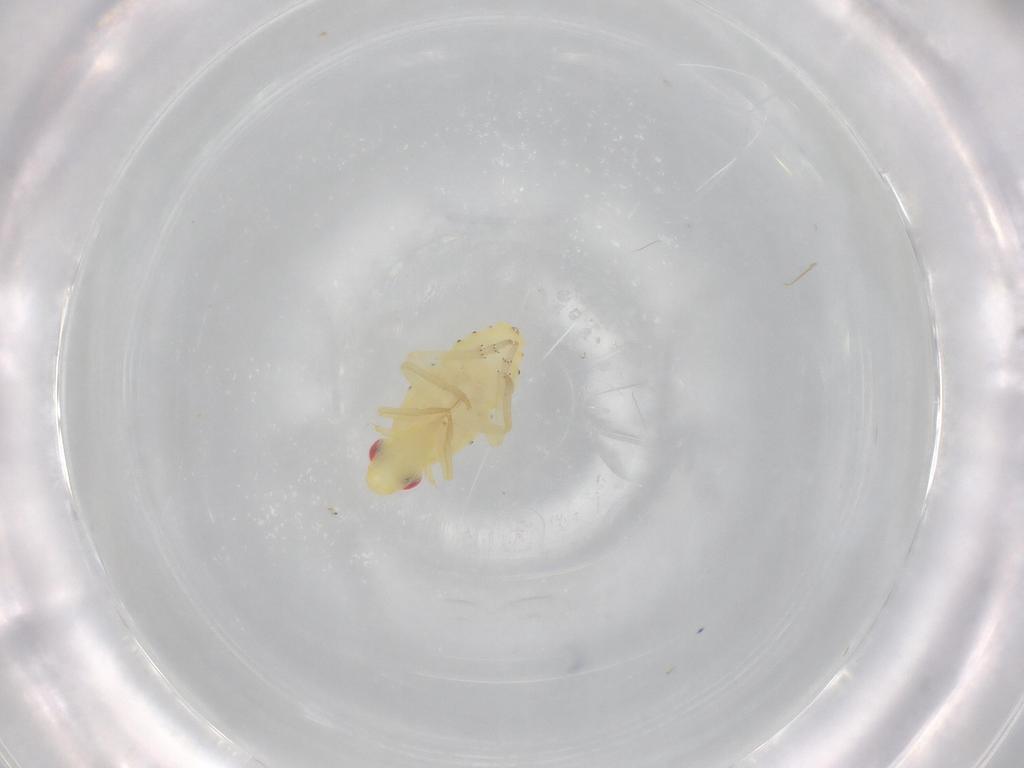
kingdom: Animalia
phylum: Arthropoda
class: Insecta
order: Hemiptera
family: Tropiduchidae
